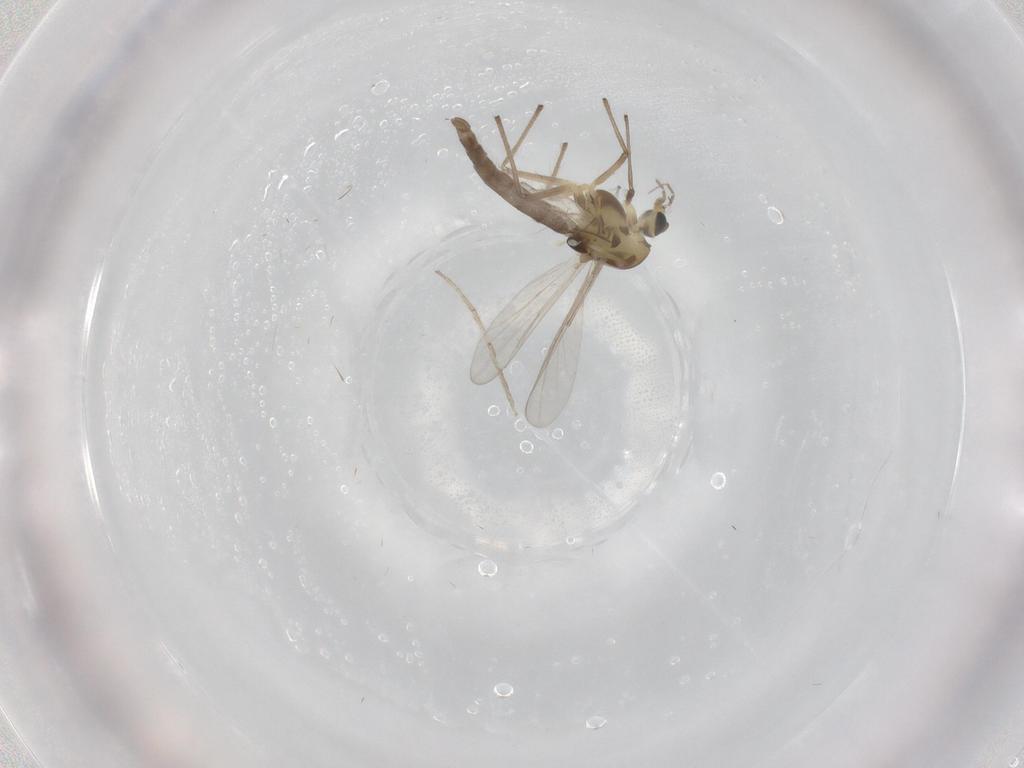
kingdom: Animalia
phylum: Arthropoda
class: Insecta
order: Diptera
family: Chironomidae
